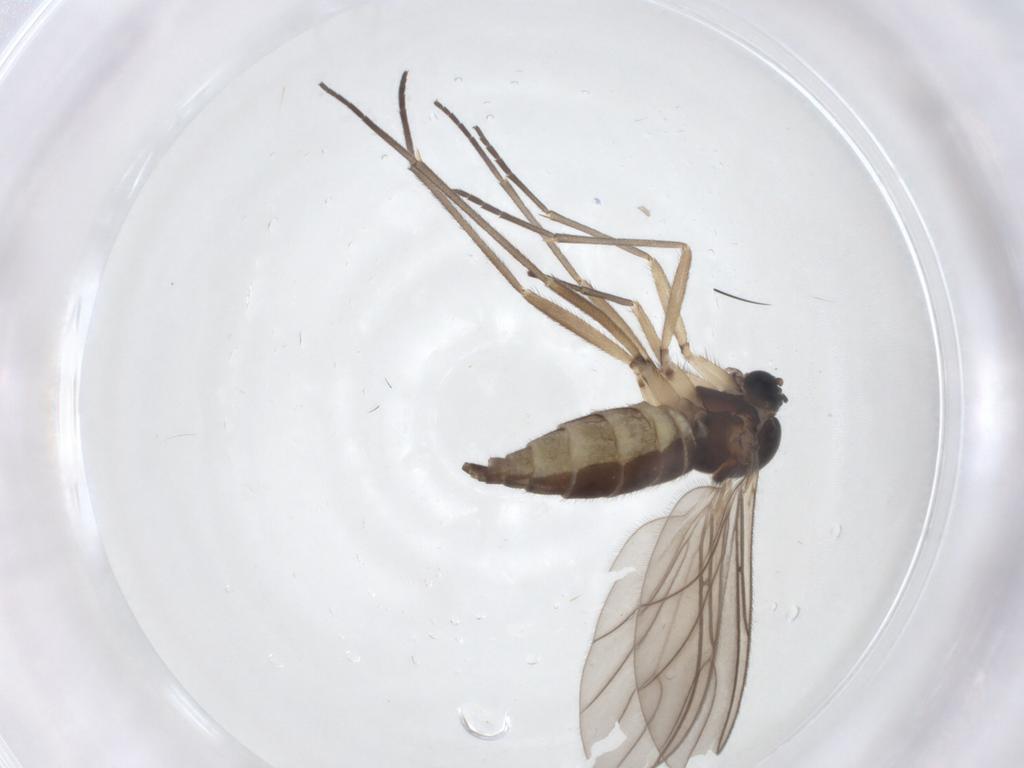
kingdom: Animalia
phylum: Arthropoda
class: Insecta
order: Diptera
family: Sciaridae
